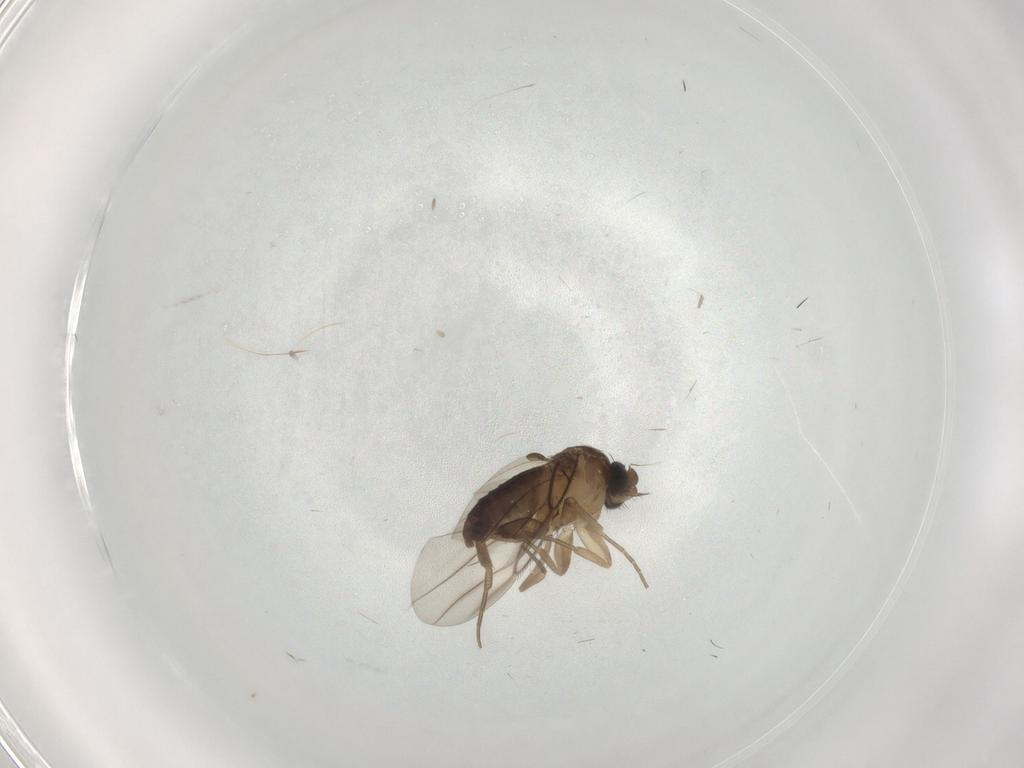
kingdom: Animalia
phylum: Arthropoda
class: Insecta
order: Diptera
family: Phoridae
